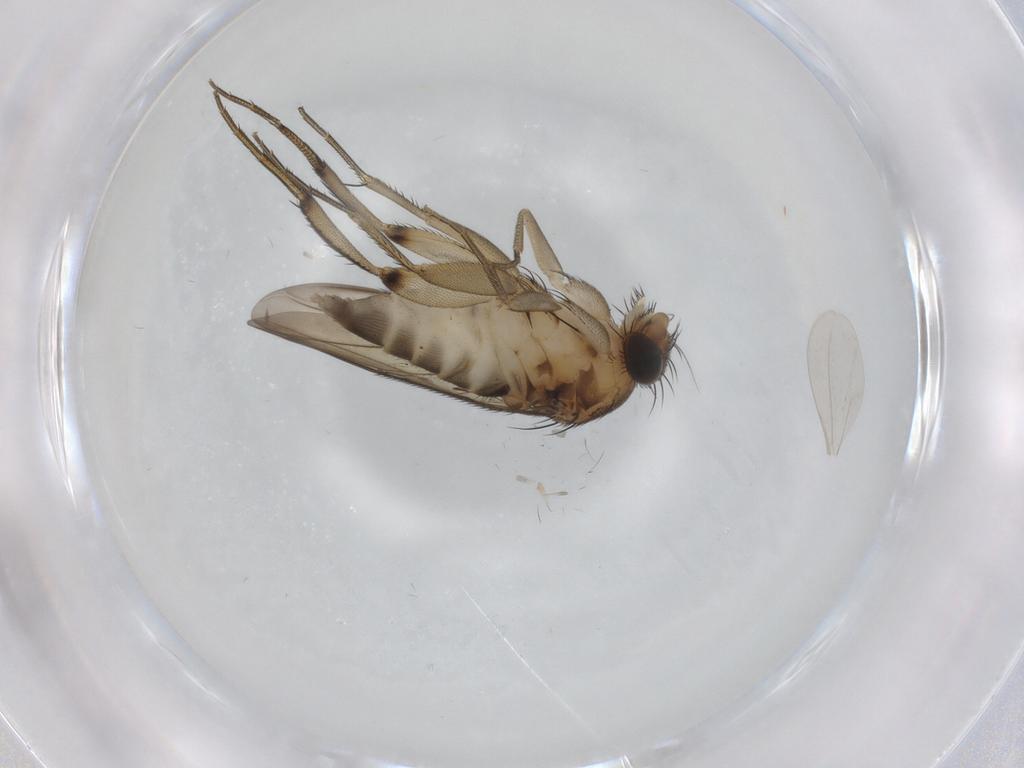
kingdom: Animalia
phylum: Arthropoda
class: Insecta
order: Diptera
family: Phoridae
